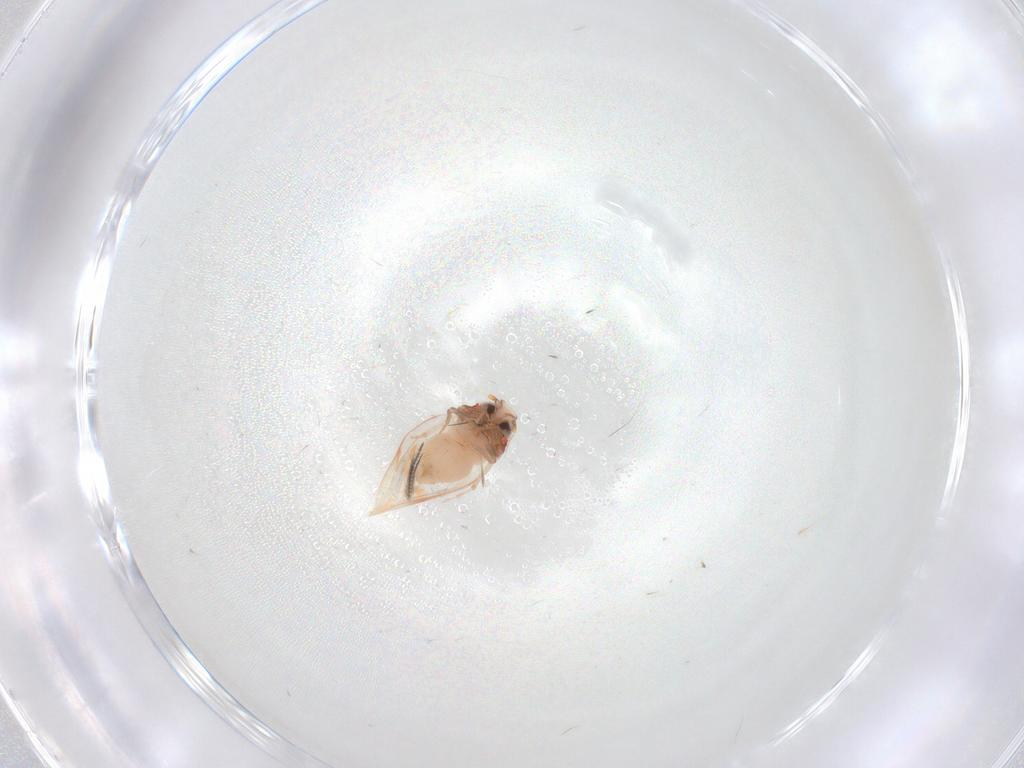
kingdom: Animalia
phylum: Arthropoda
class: Insecta
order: Hemiptera
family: Aleyrodidae
